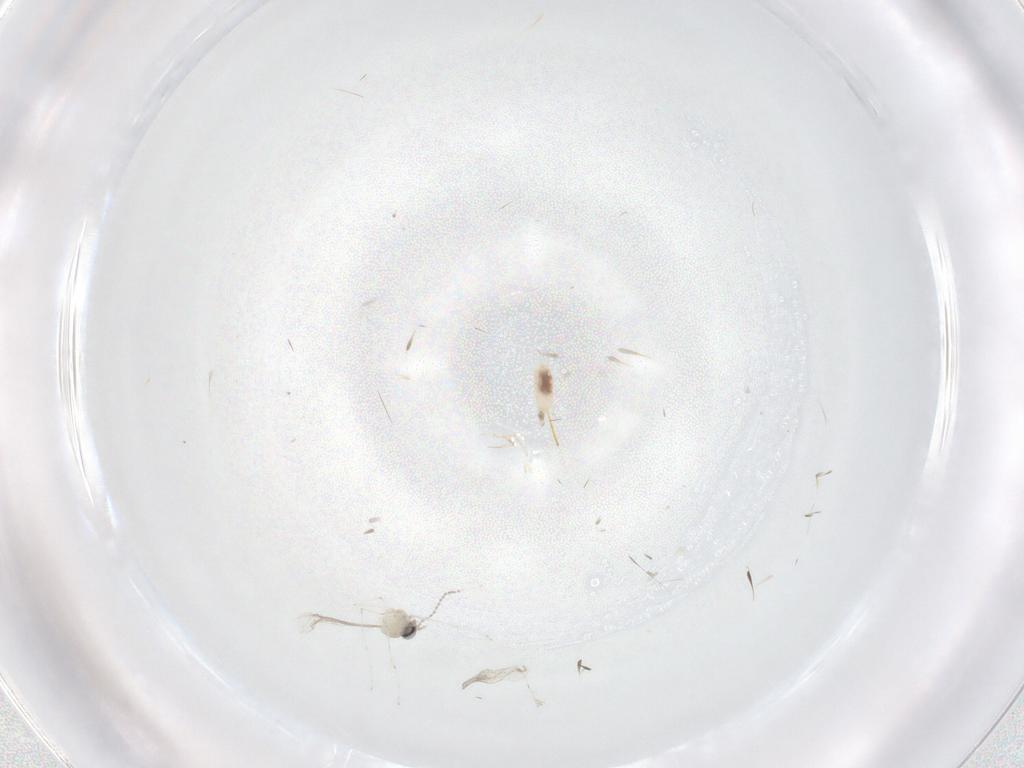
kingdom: Animalia
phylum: Arthropoda
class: Insecta
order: Diptera
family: Cecidomyiidae
